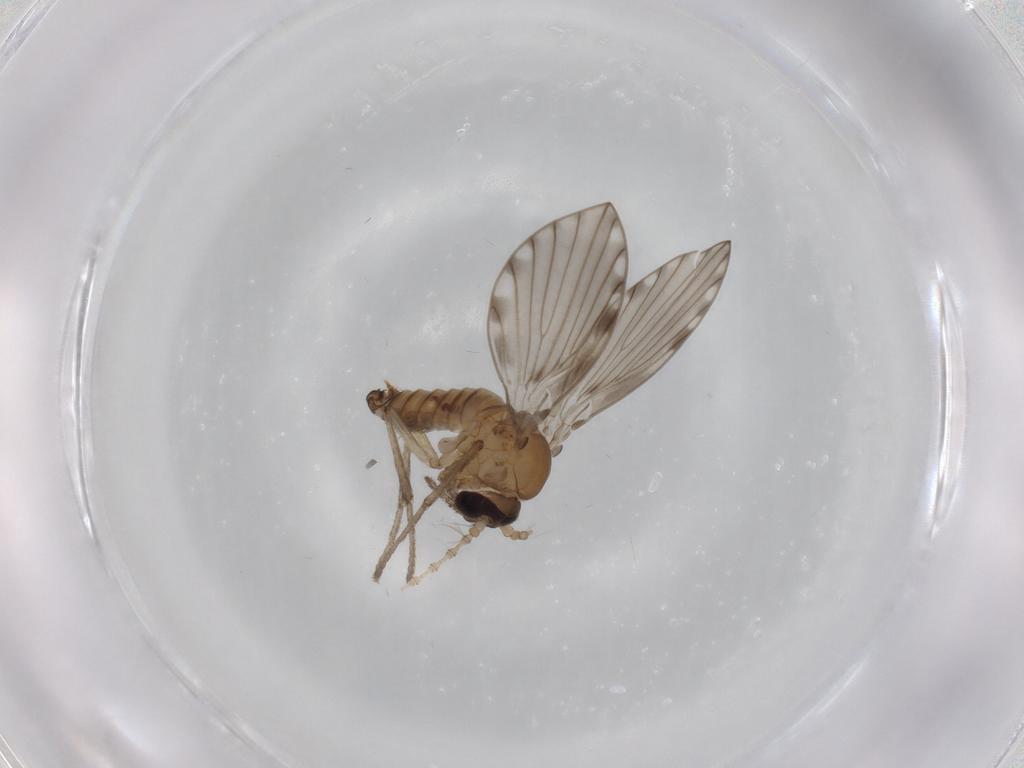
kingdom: Animalia
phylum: Arthropoda
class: Insecta
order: Diptera
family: Psychodidae
